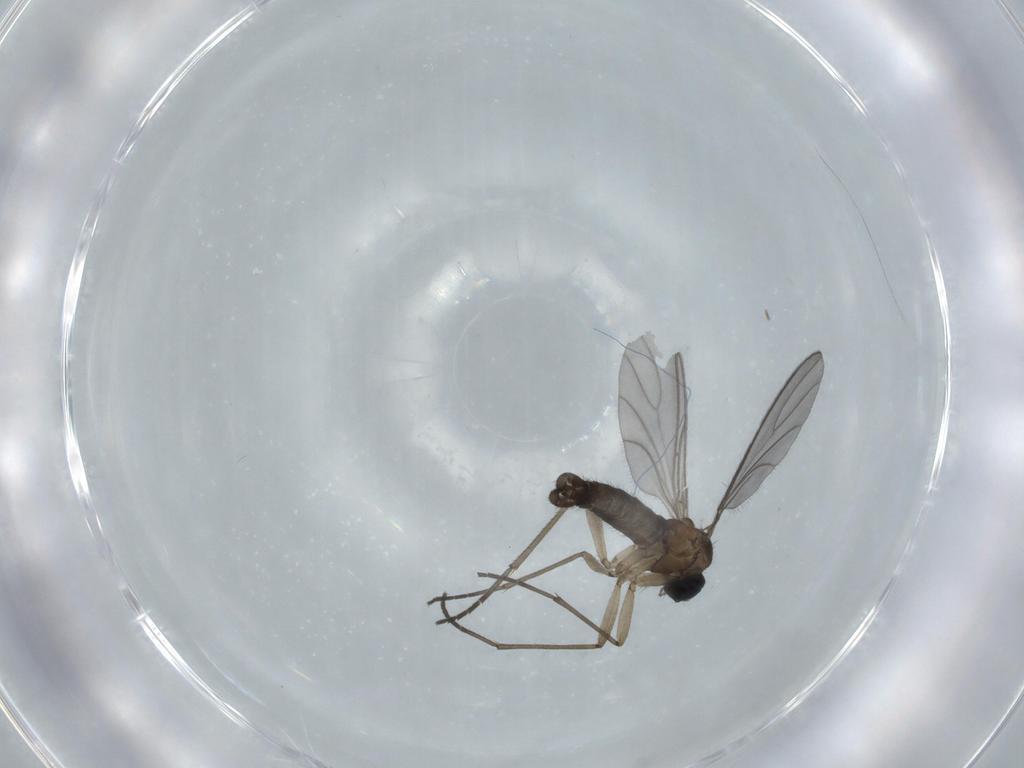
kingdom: Animalia
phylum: Arthropoda
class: Insecta
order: Diptera
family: Sciaridae
